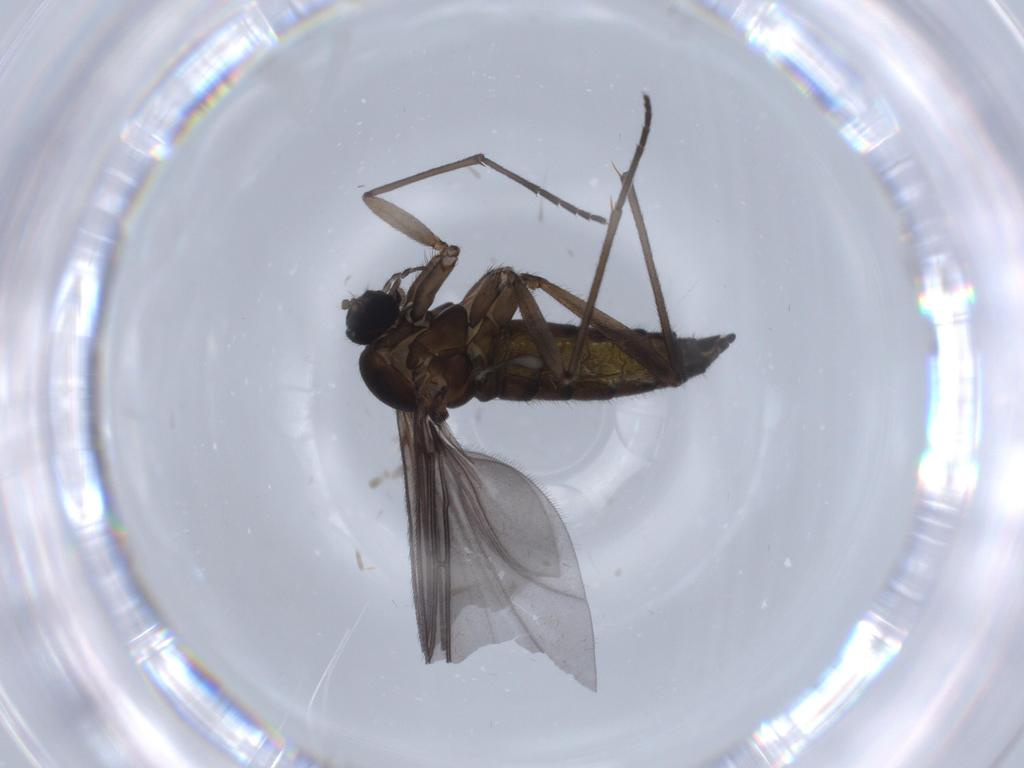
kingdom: Animalia
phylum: Arthropoda
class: Insecta
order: Diptera
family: Sciaridae
